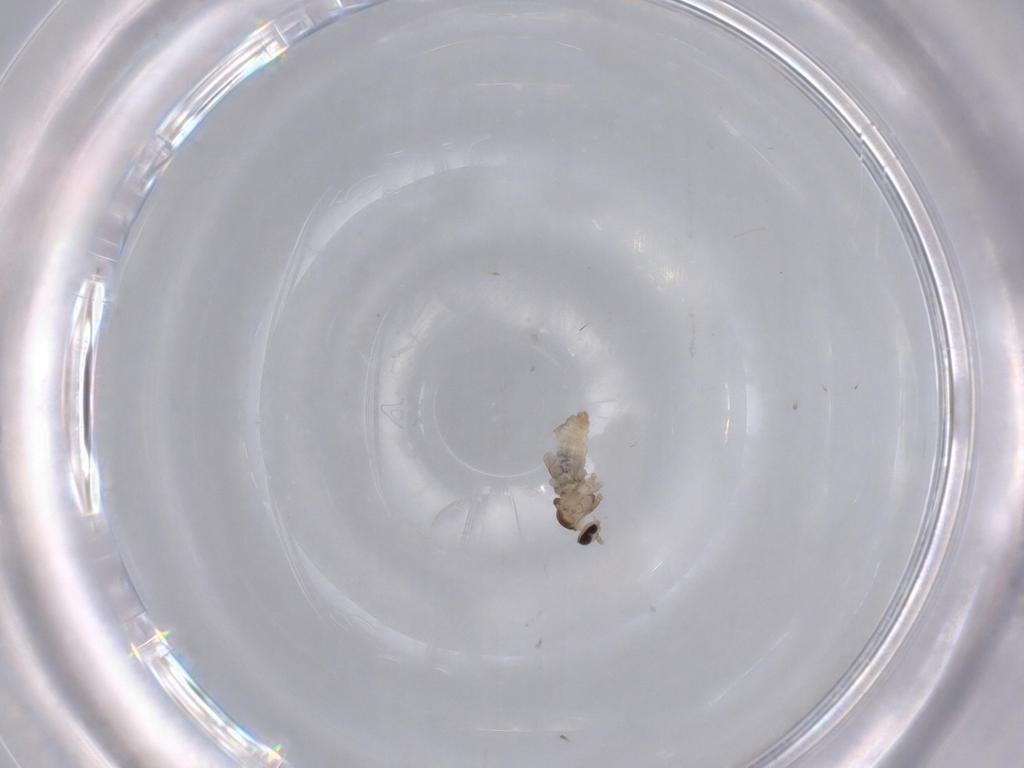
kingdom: Animalia
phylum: Arthropoda
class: Insecta
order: Diptera
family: Cecidomyiidae
